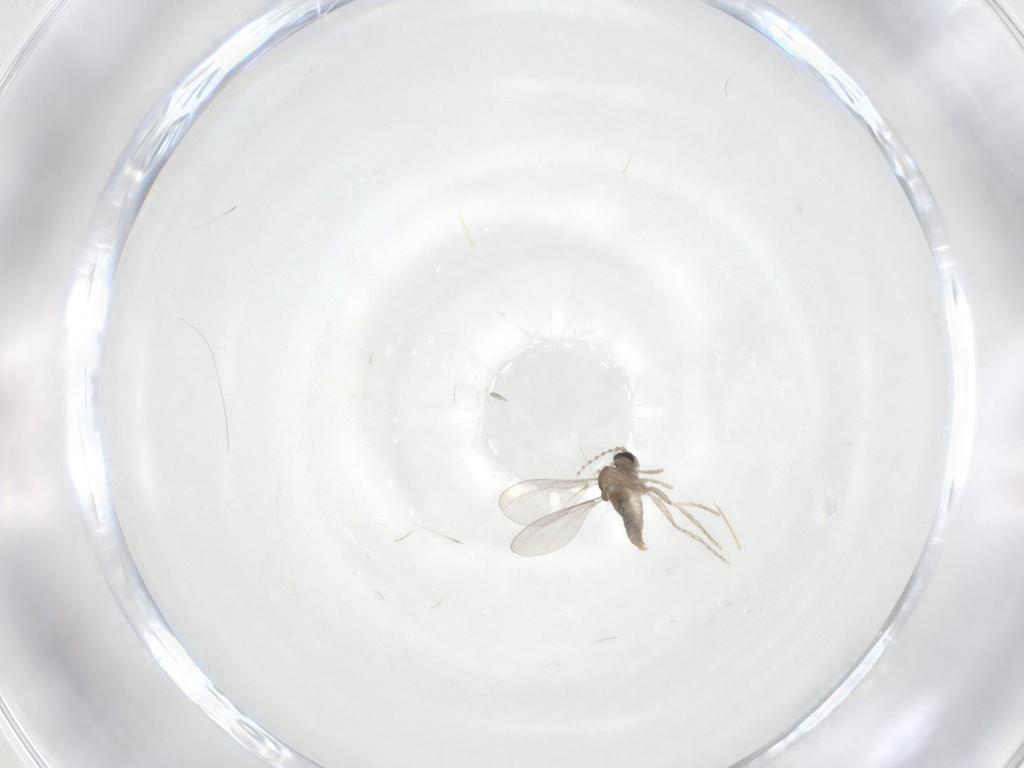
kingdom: Animalia
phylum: Arthropoda
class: Insecta
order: Diptera
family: Cecidomyiidae
